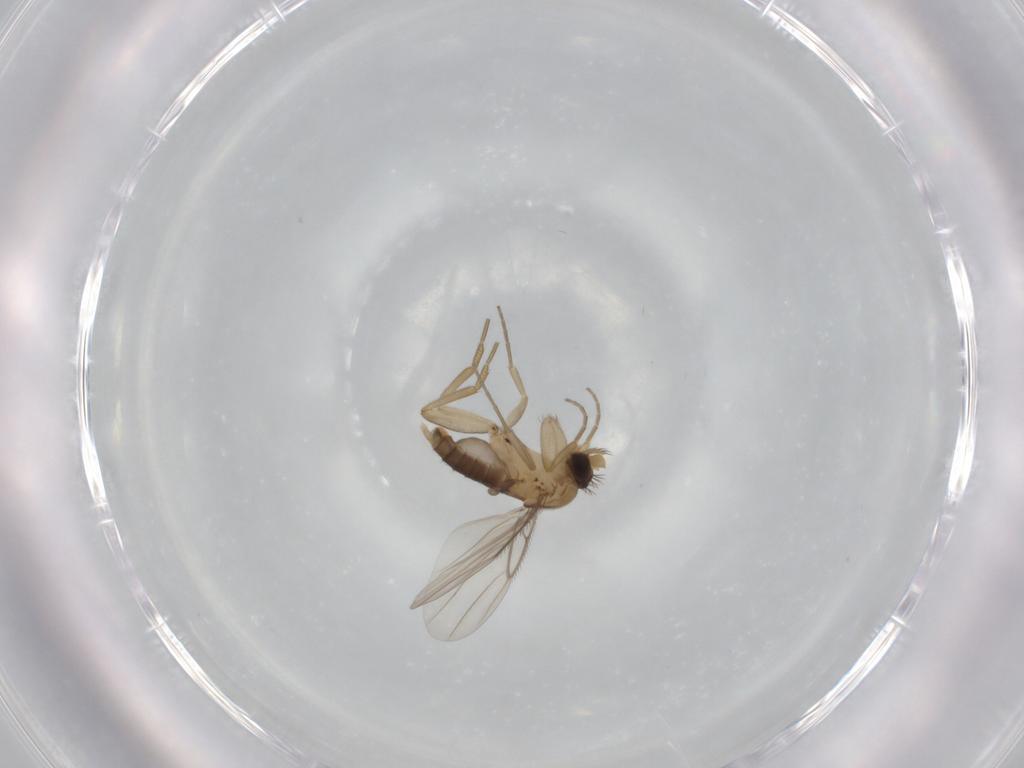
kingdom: Animalia
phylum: Arthropoda
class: Insecta
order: Diptera
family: Phoridae
